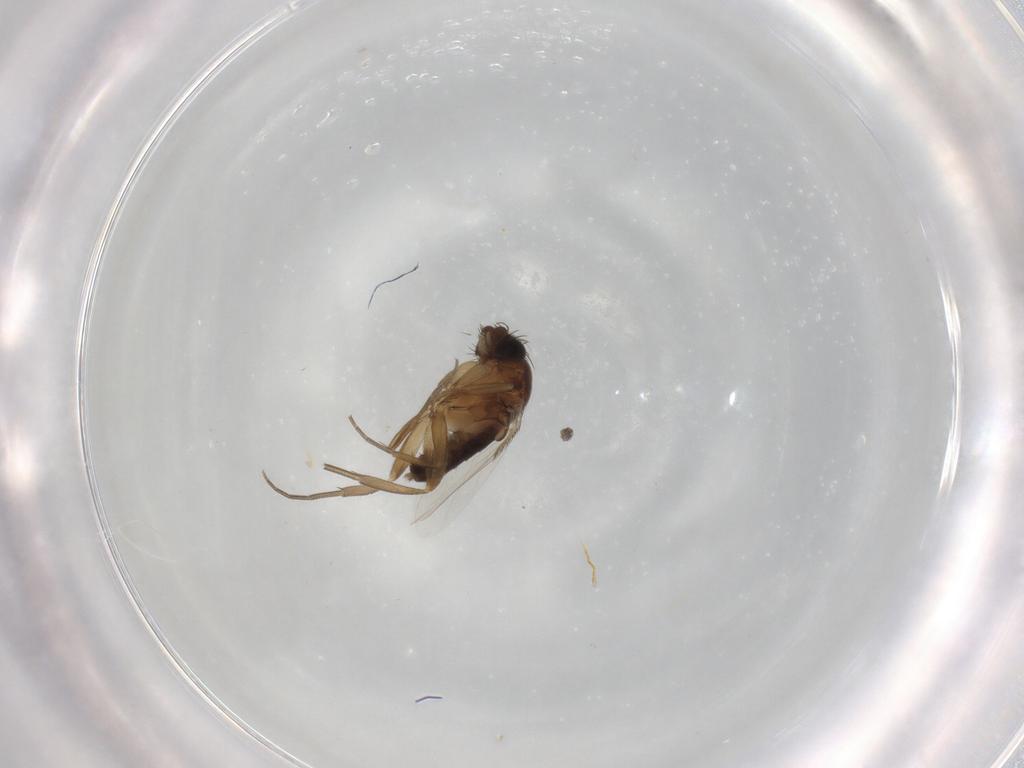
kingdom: Animalia
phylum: Arthropoda
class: Insecta
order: Diptera
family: Phoridae
